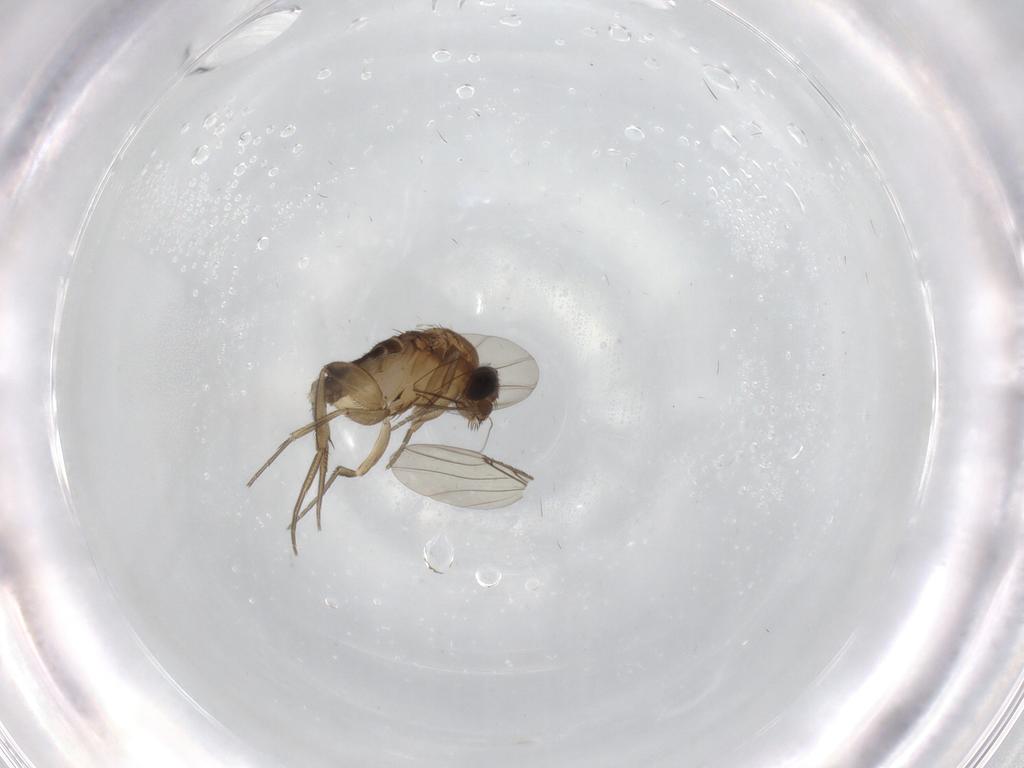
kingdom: Animalia
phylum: Arthropoda
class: Insecta
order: Diptera
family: Phoridae
